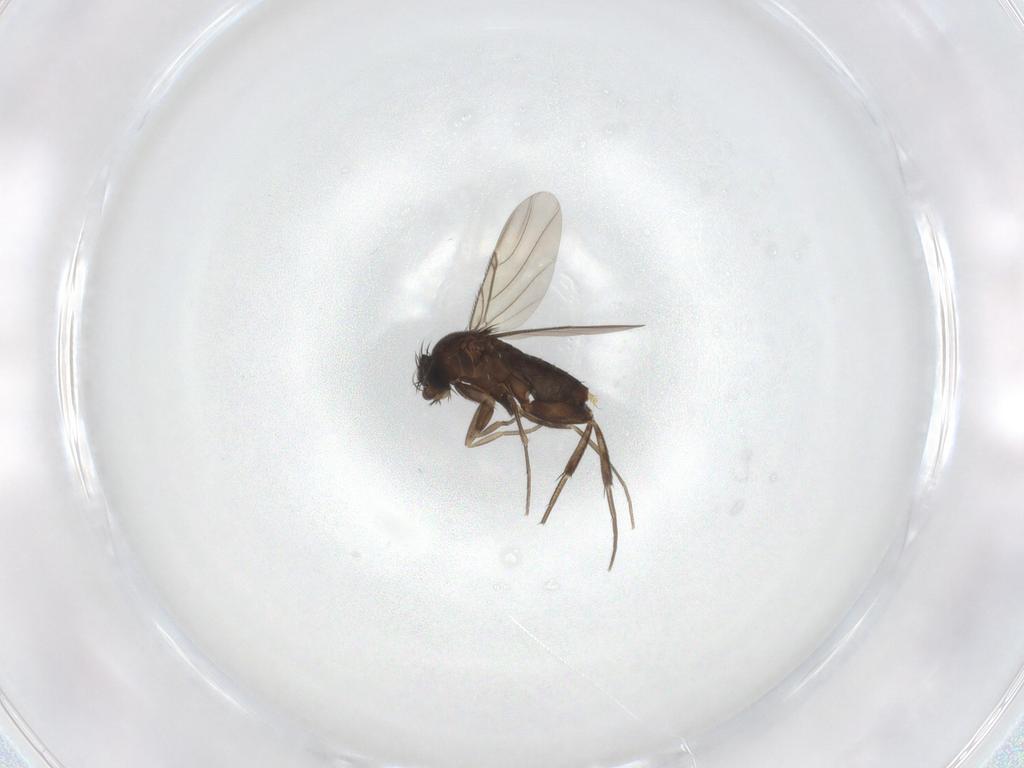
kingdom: Animalia
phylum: Arthropoda
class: Insecta
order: Diptera
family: Phoridae
